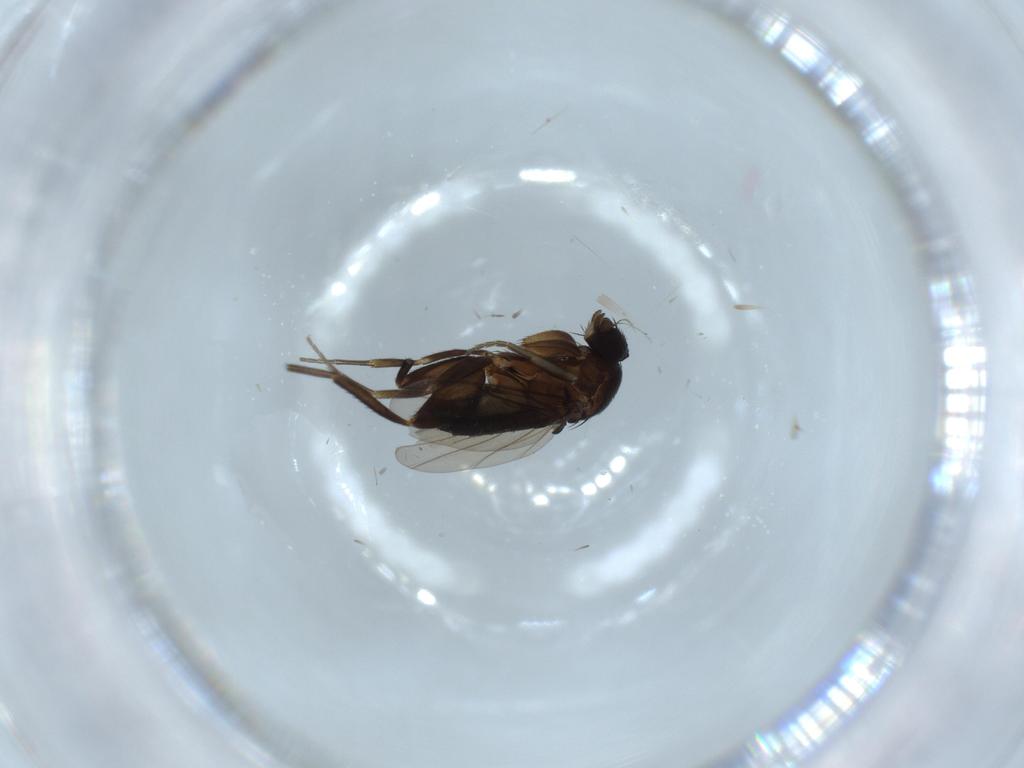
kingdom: Animalia
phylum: Arthropoda
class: Insecta
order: Diptera
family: Phoridae
